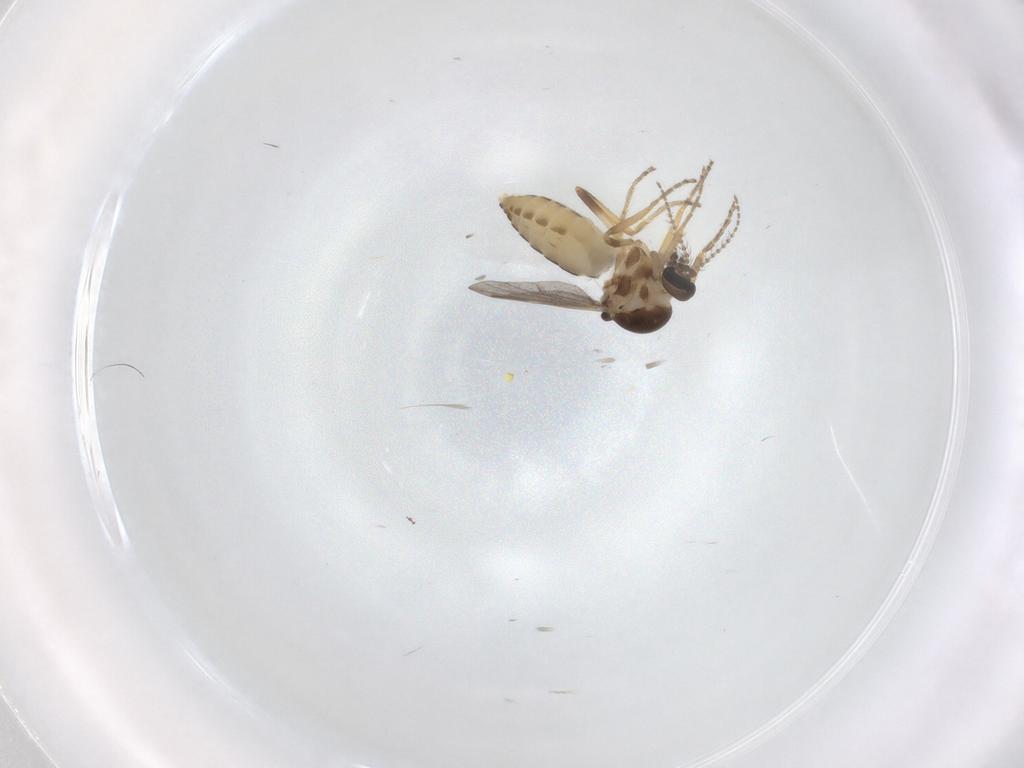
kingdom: Animalia
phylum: Arthropoda
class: Insecta
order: Diptera
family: Ceratopogonidae
